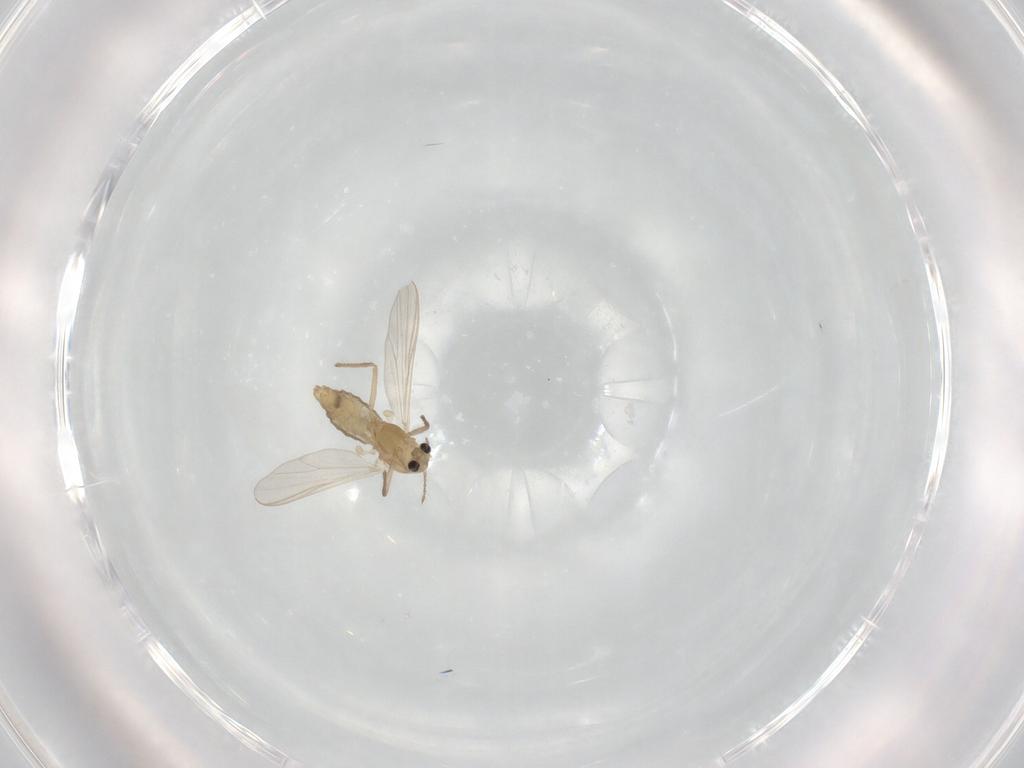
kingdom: Animalia
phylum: Arthropoda
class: Insecta
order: Diptera
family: Chironomidae
